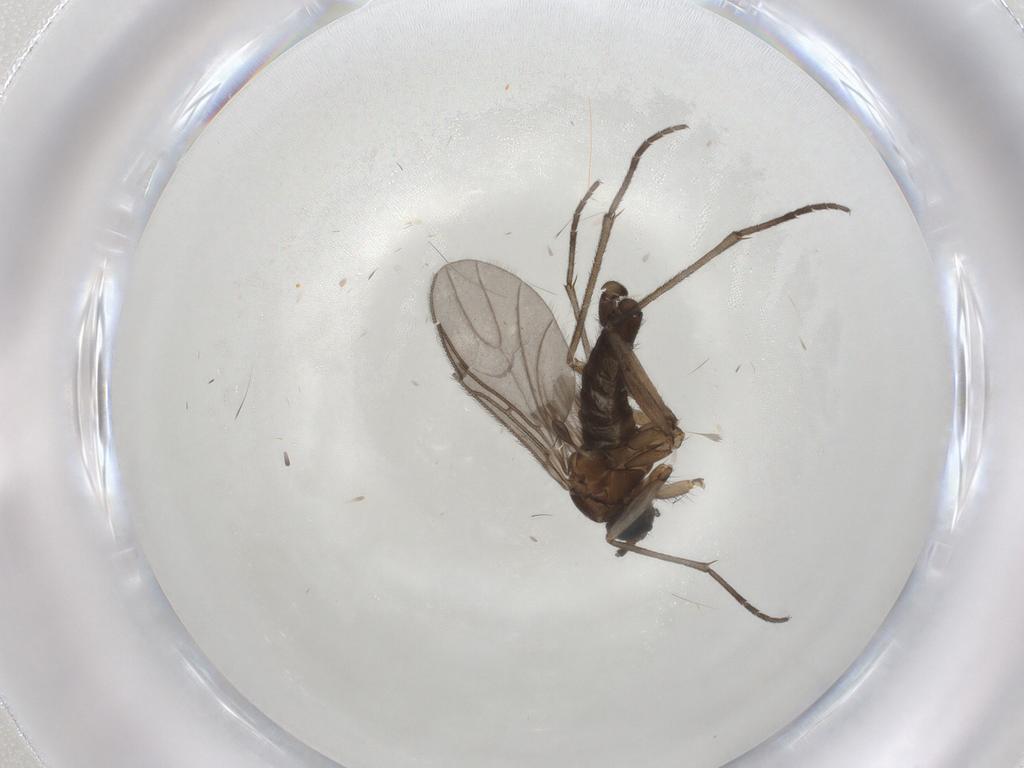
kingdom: Animalia
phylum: Arthropoda
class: Insecta
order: Diptera
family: Sciaridae
